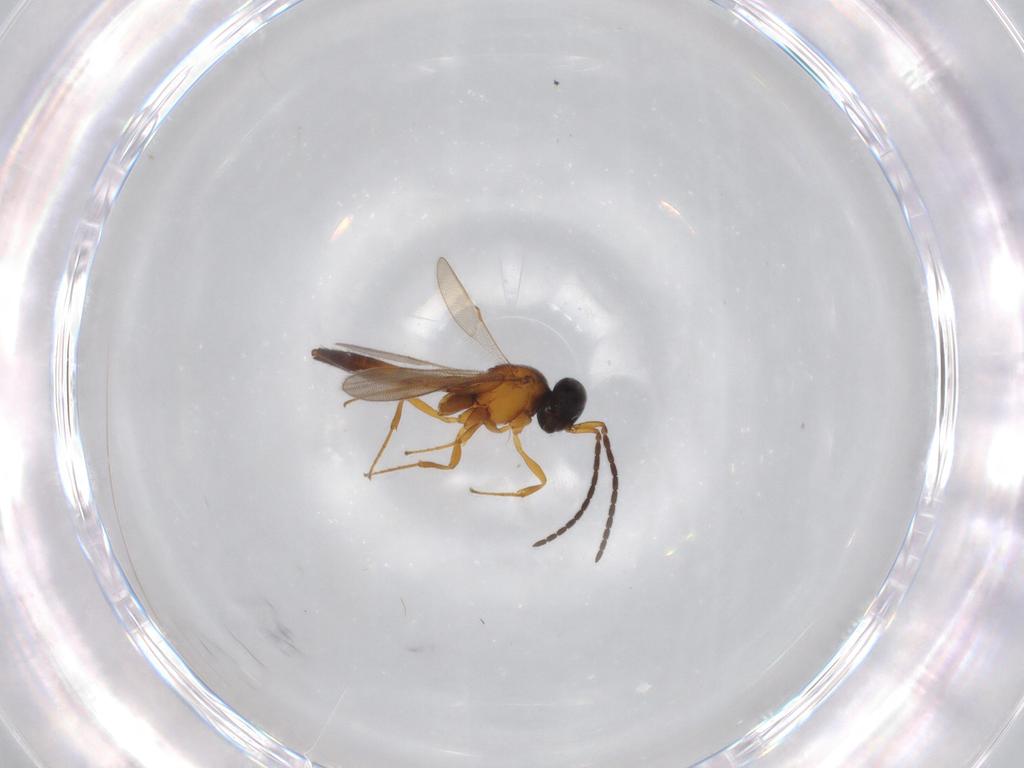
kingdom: Animalia
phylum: Arthropoda
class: Insecta
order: Hymenoptera
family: Scelionidae
